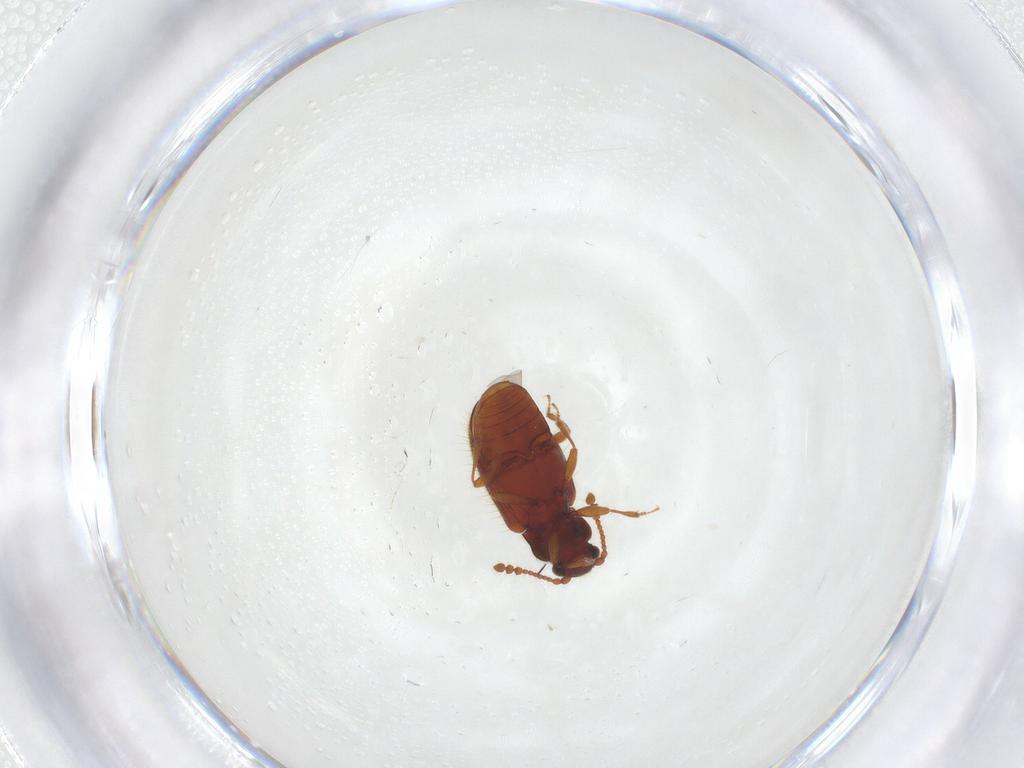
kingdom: Animalia
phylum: Arthropoda
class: Insecta
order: Coleoptera
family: Cryptophagidae
